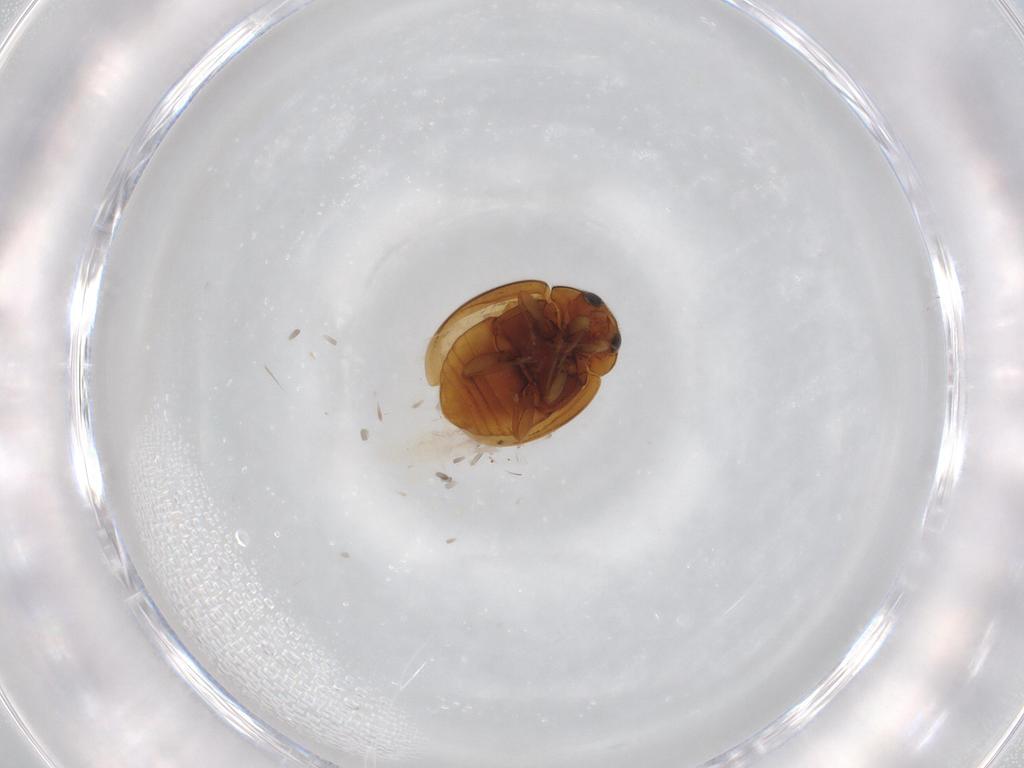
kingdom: Animalia
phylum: Arthropoda
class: Insecta
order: Coleoptera
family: Coccinellidae
